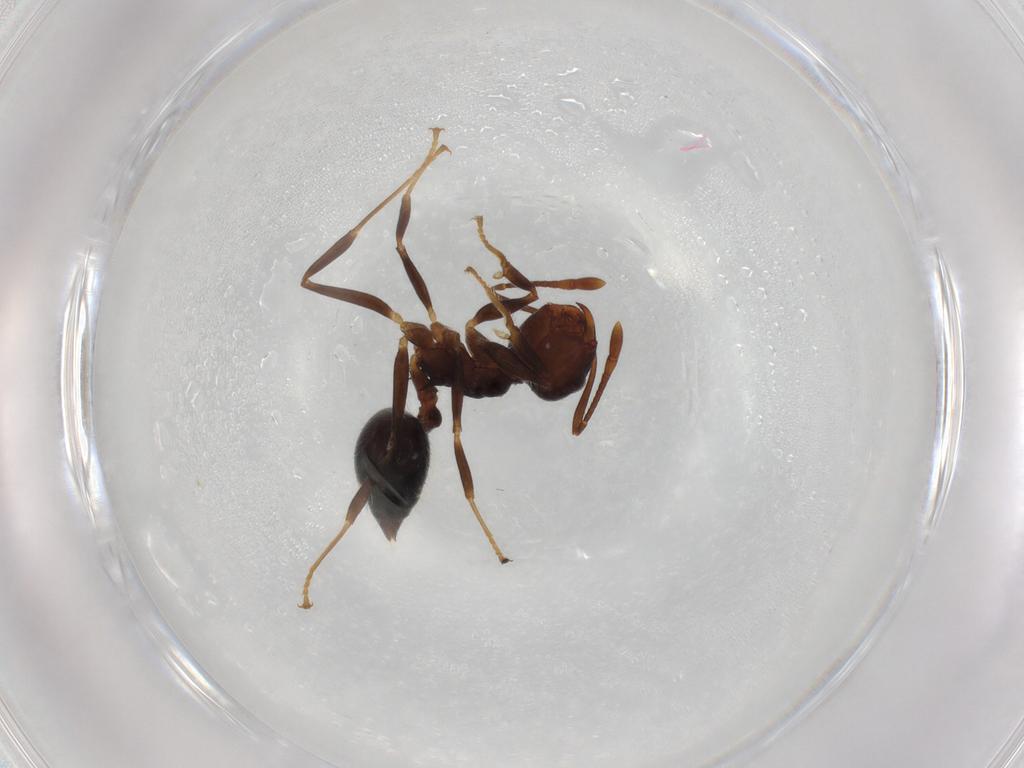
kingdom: Animalia
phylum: Arthropoda
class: Insecta
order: Hymenoptera
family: Formicidae
